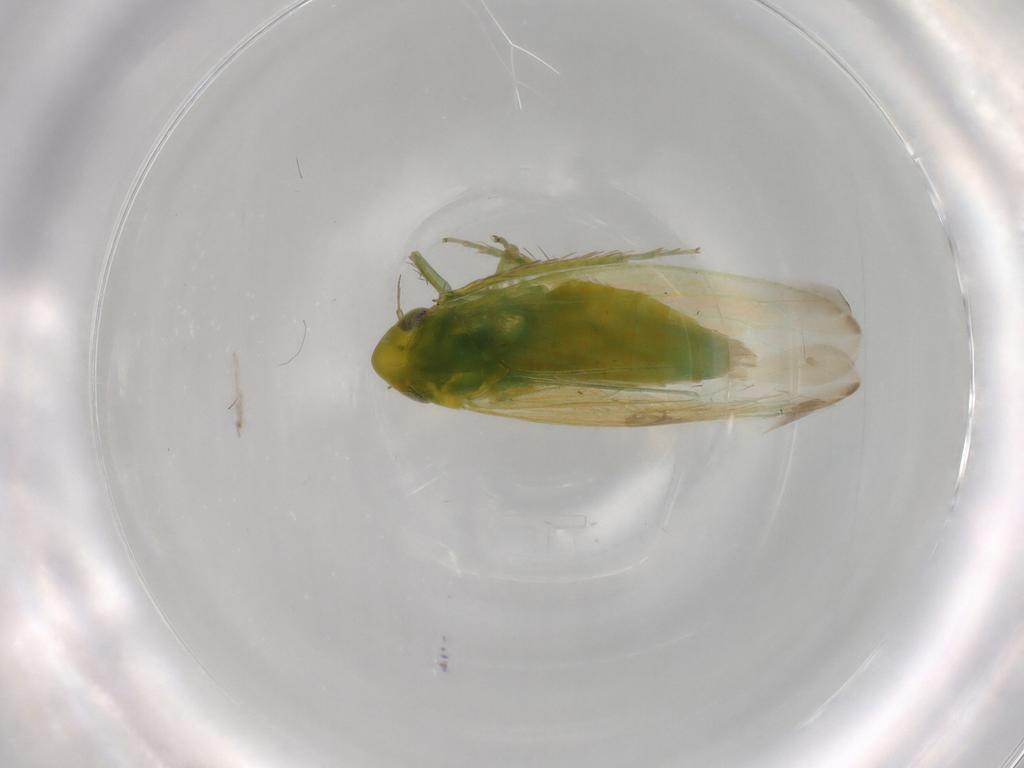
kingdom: Animalia
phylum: Arthropoda
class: Insecta
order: Hemiptera
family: Cicadellidae
